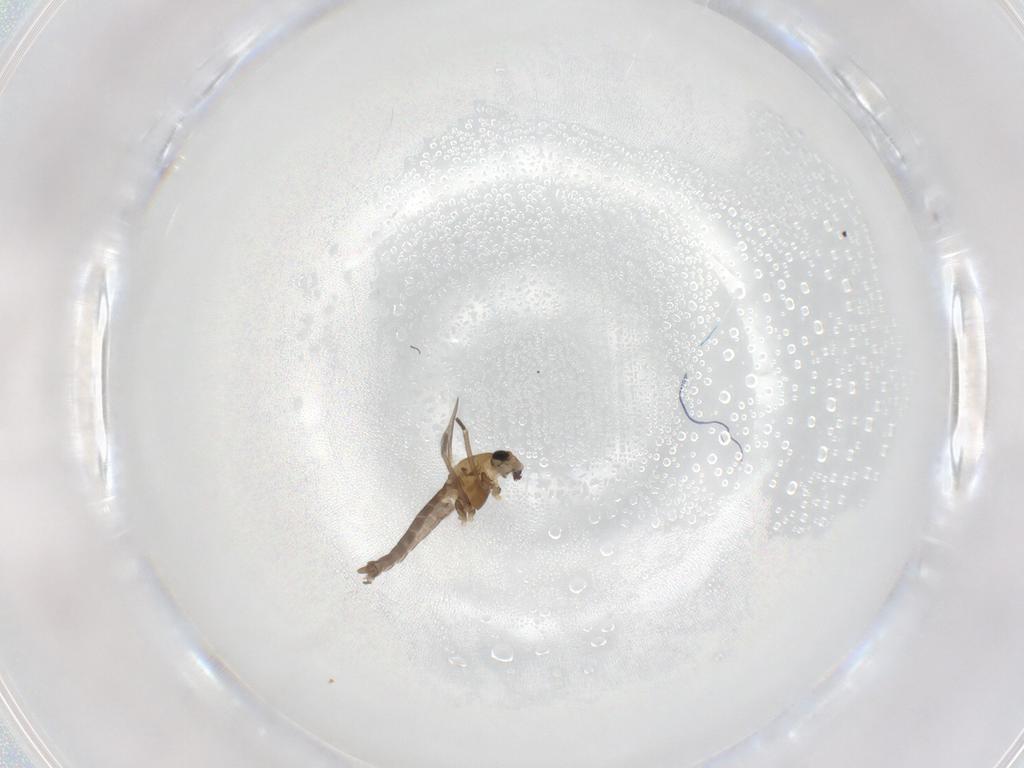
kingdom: Animalia
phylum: Arthropoda
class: Insecta
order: Diptera
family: Chironomidae
